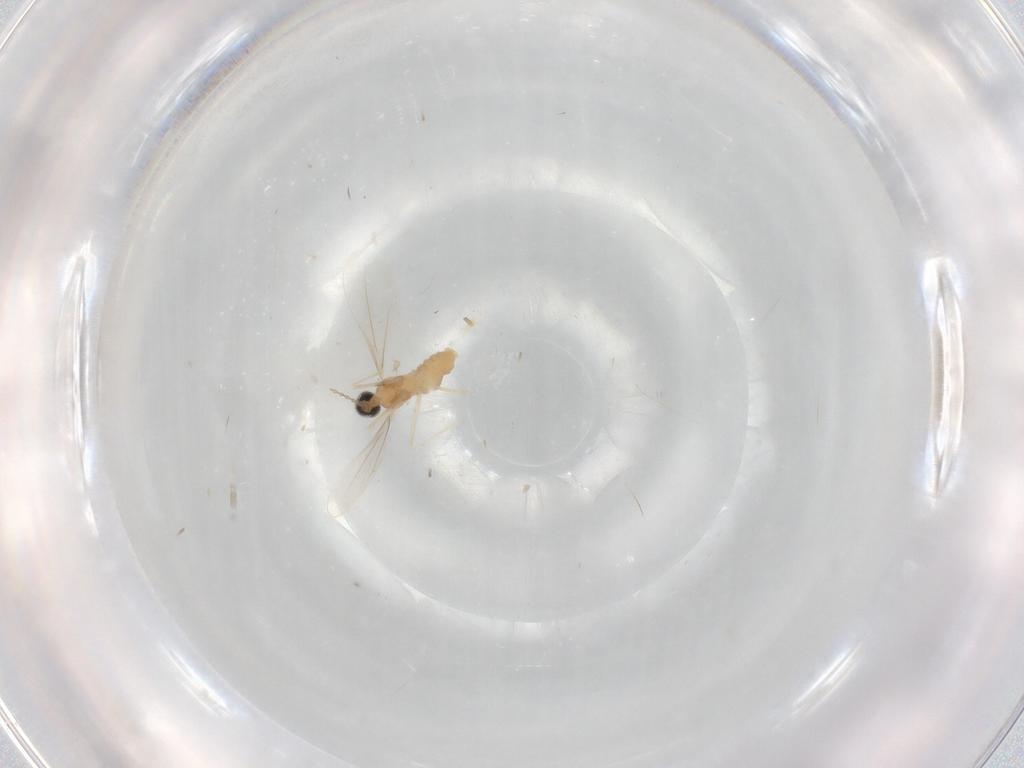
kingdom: Animalia
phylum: Arthropoda
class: Insecta
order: Diptera
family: Cecidomyiidae
